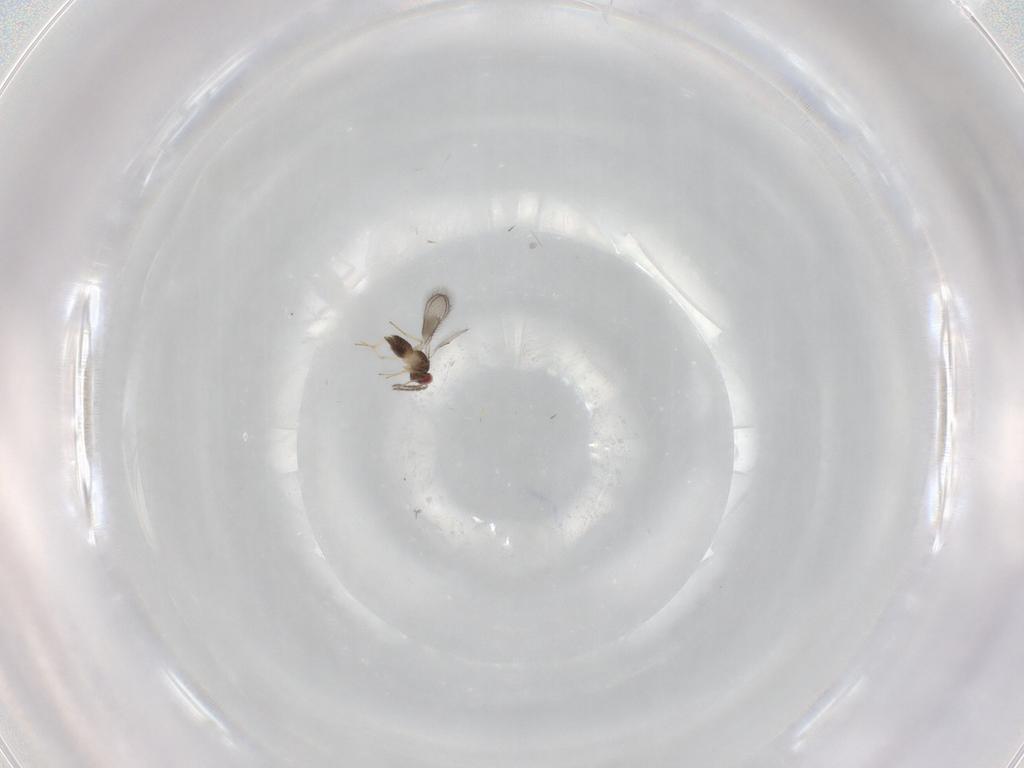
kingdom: Animalia
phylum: Arthropoda
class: Insecta
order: Hymenoptera
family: Eulophidae
